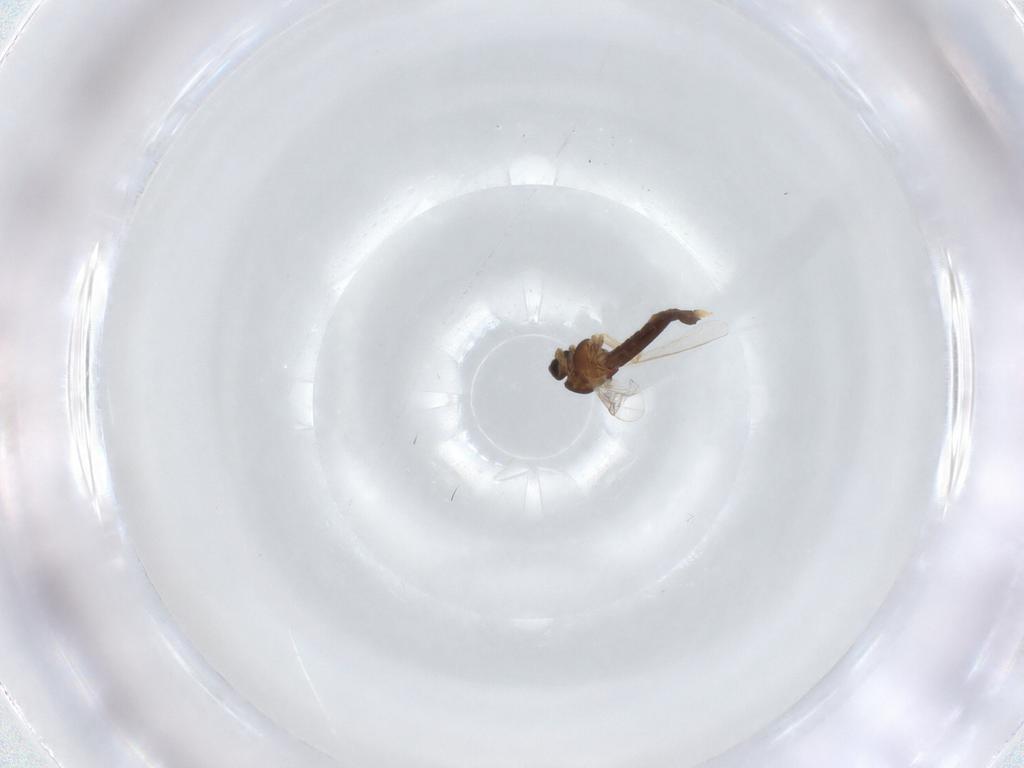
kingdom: Animalia
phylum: Arthropoda
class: Insecta
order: Diptera
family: Chironomidae
